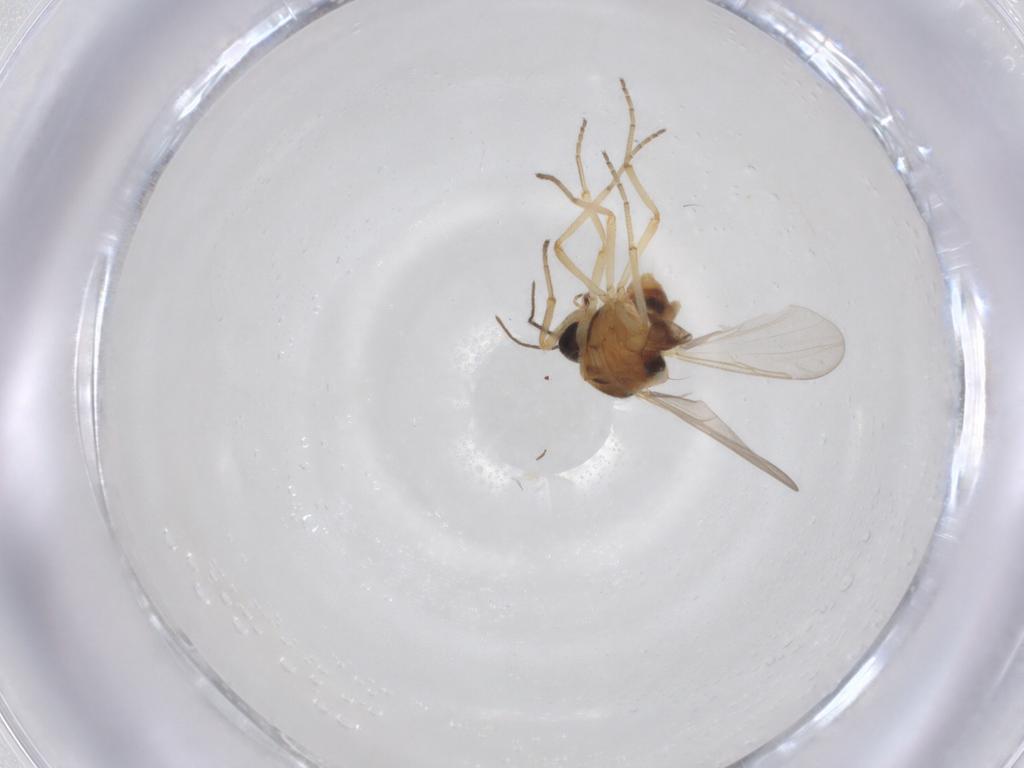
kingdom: Animalia
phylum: Arthropoda
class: Insecta
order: Diptera
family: Ceratopogonidae
